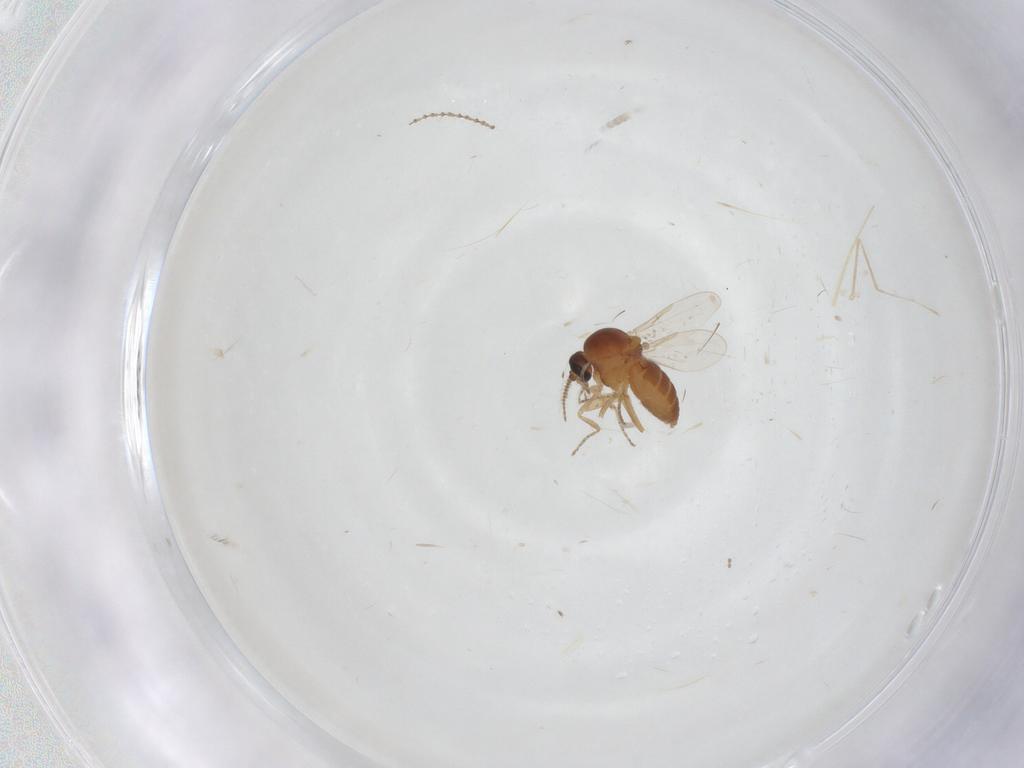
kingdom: Animalia
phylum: Arthropoda
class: Insecta
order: Diptera
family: Ceratopogonidae
